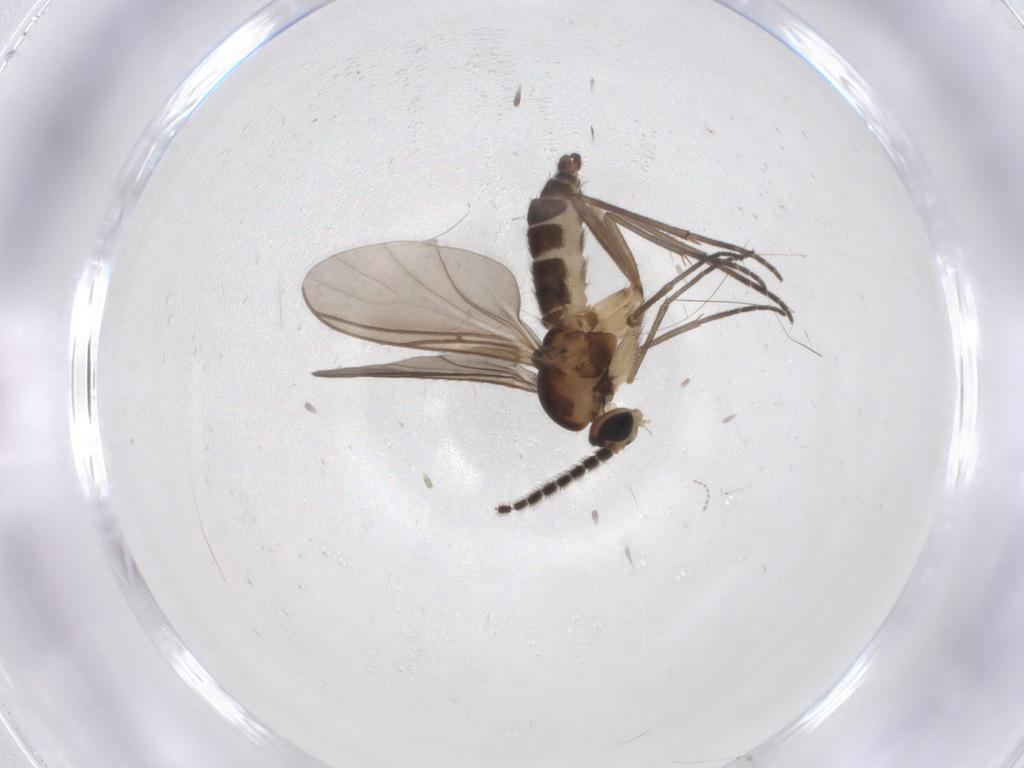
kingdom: Animalia
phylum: Arthropoda
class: Insecta
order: Diptera
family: Sciaridae
